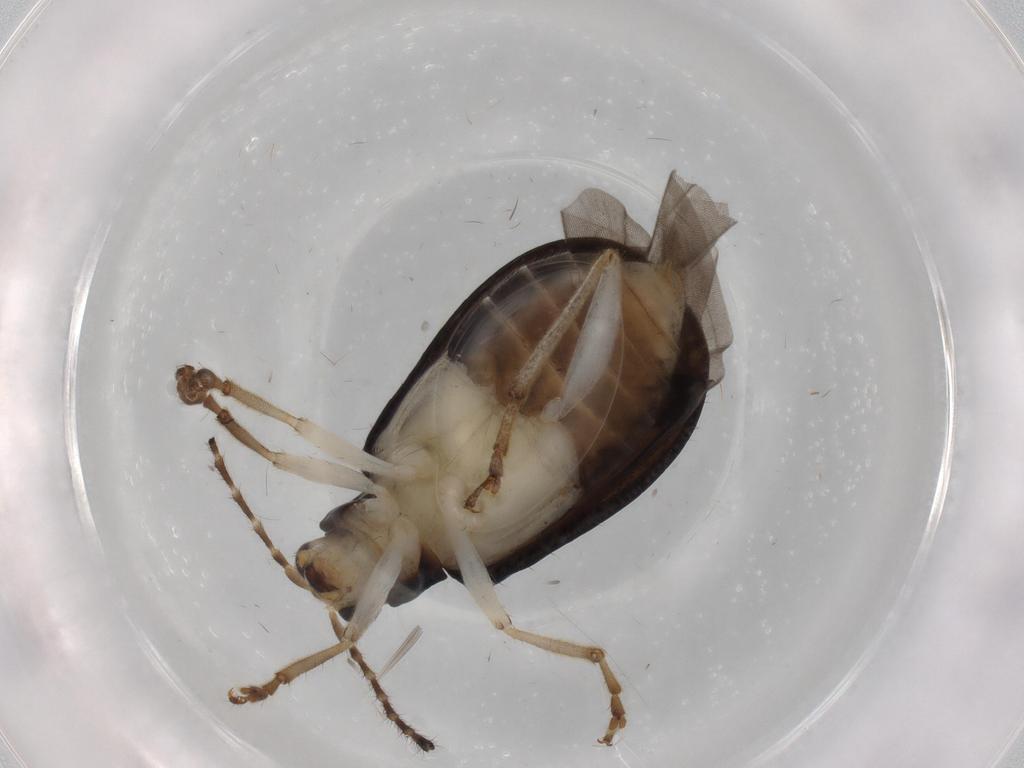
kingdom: Animalia
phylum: Arthropoda
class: Insecta
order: Coleoptera
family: Chrysomelidae
